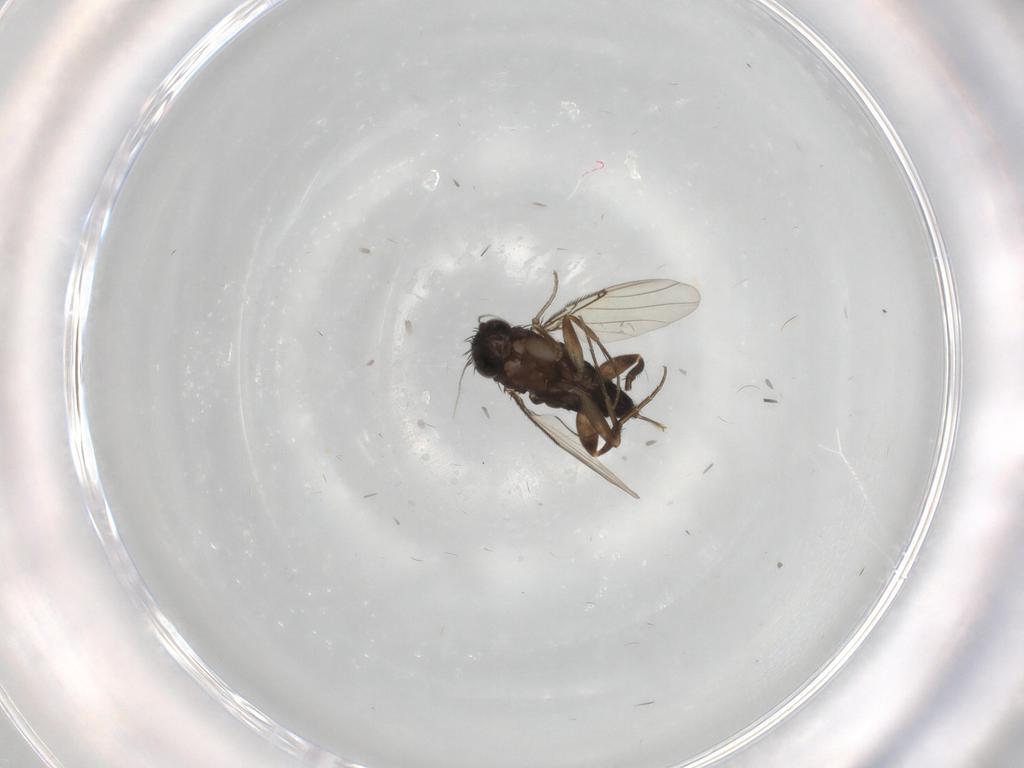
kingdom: Animalia
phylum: Arthropoda
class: Insecta
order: Diptera
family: Phoridae
